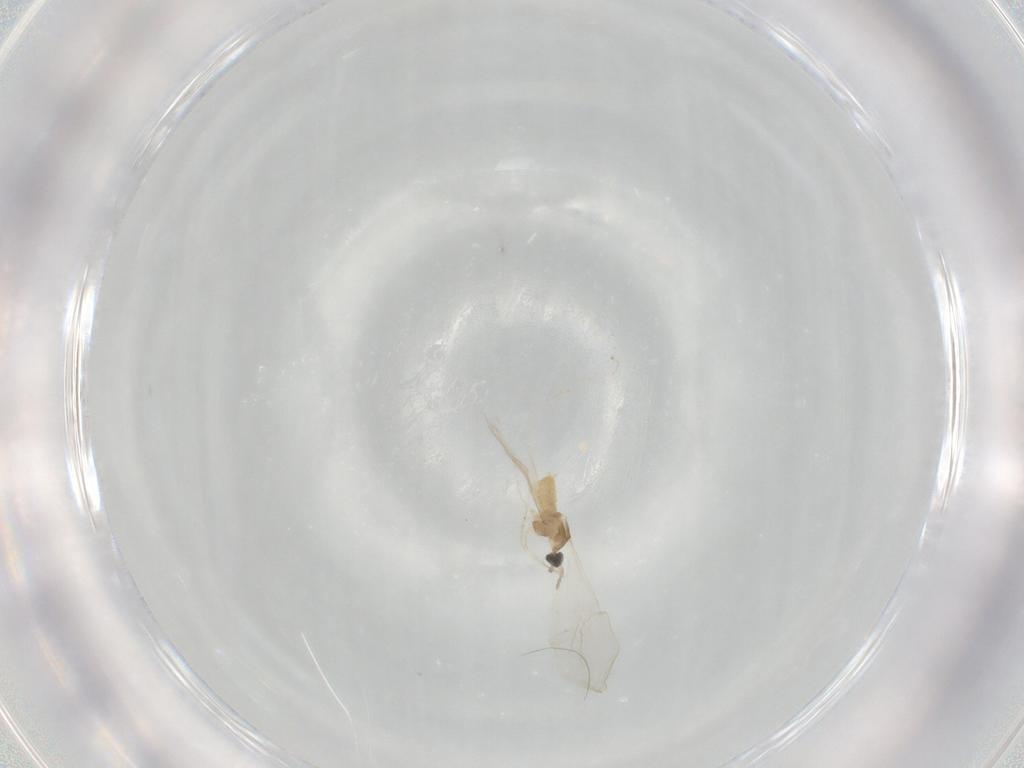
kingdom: Animalia
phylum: Arthropoda
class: Insecta
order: Diptera
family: Cecidomyiidae
